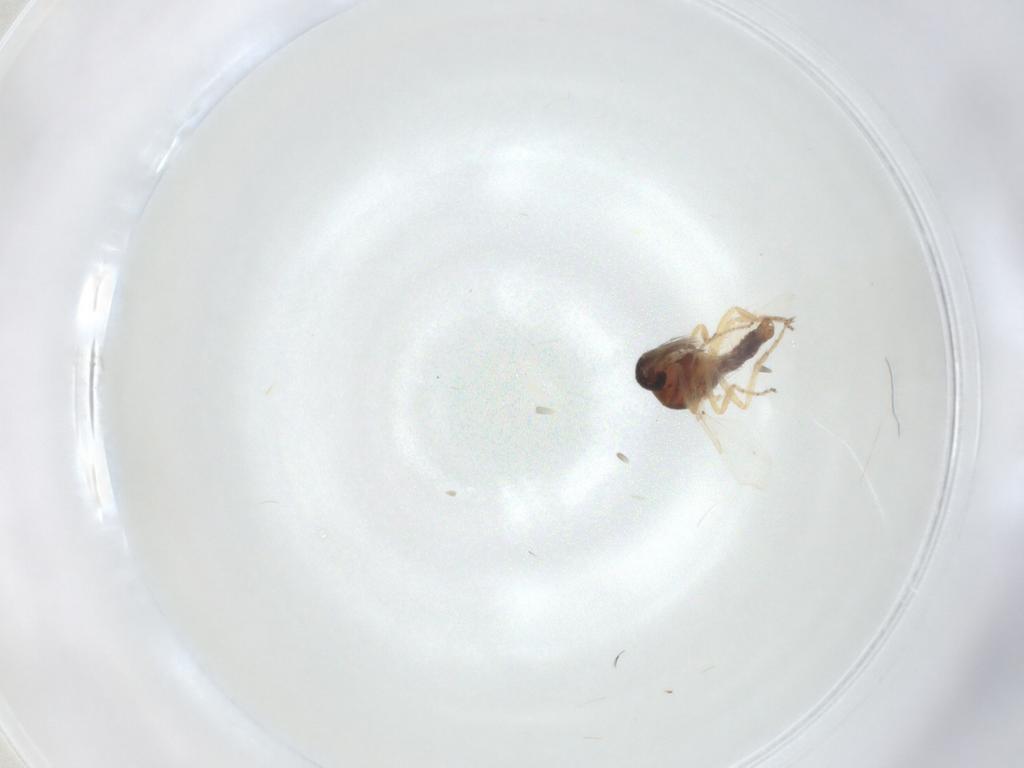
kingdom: Animalia
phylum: Arthropoda
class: Insecta
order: Diptera
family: Ceratopogonidae
